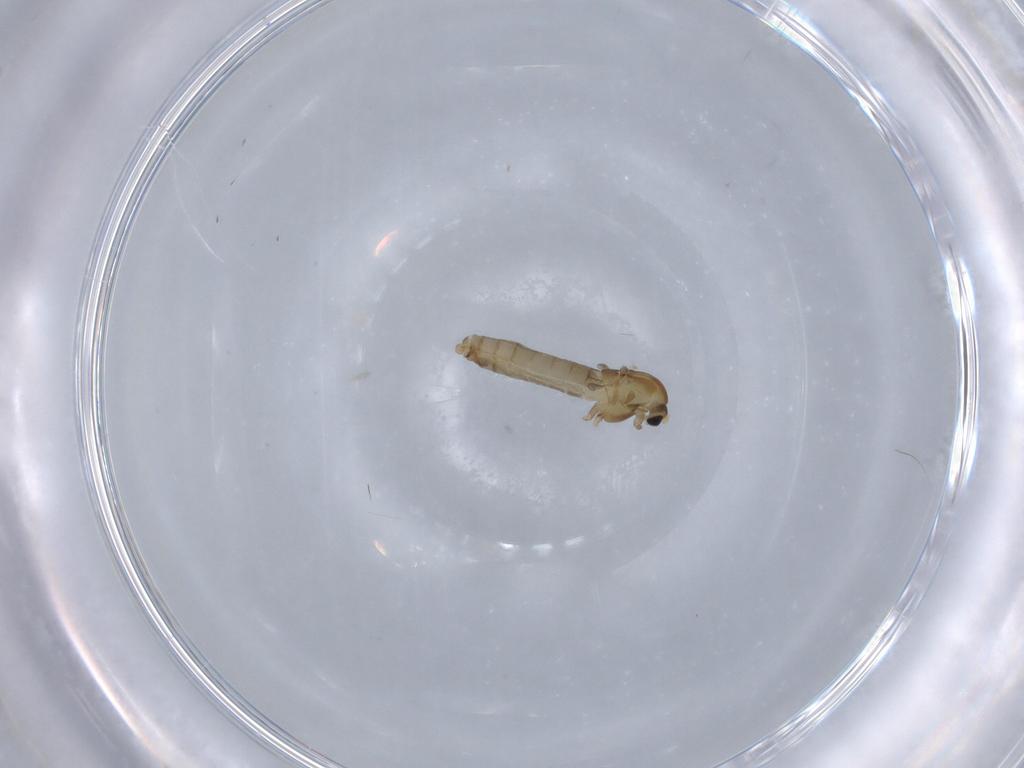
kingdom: Animalia
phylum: Arthropoda
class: Insecta
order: Diptera
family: Chironomidae
